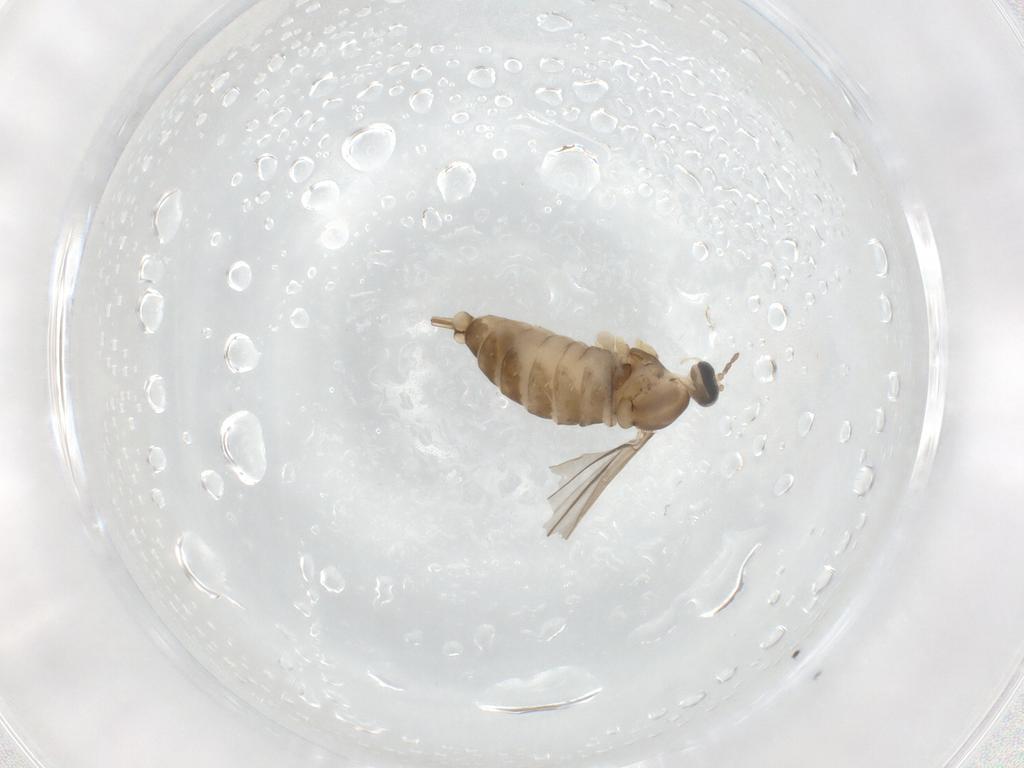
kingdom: Animalia
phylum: Arthropoda
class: Insecta
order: Diptera
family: Cecidomyiidae
